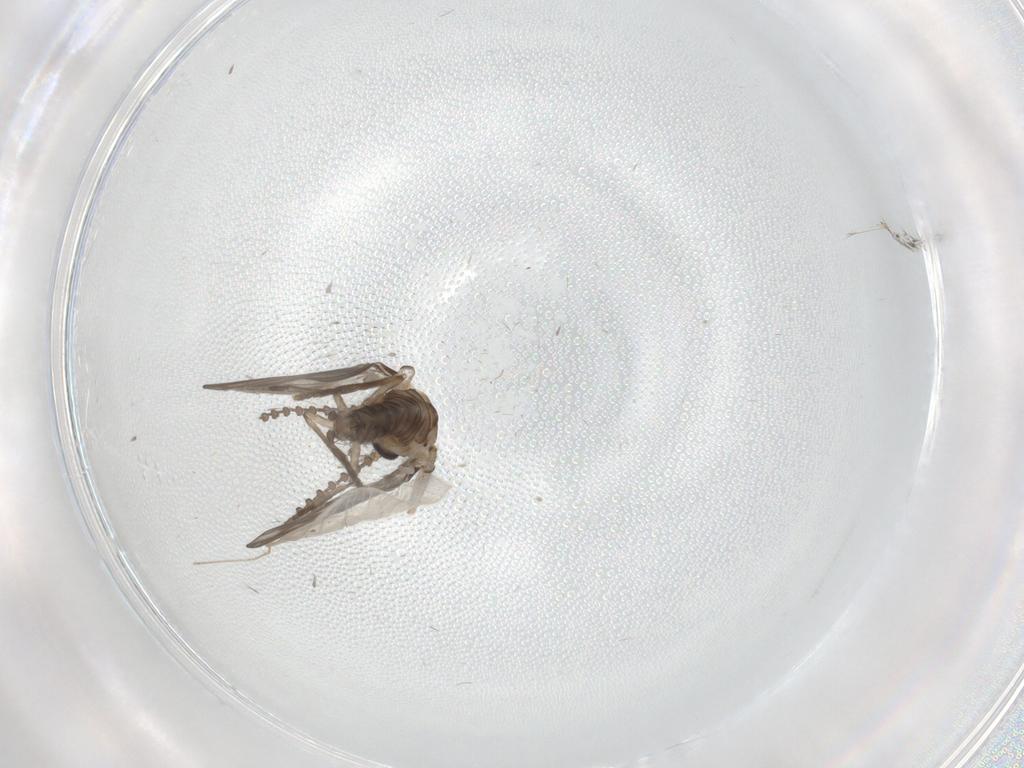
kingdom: Animalia
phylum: Arthropoda
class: Insecta
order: Diptera
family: Psychodidae
